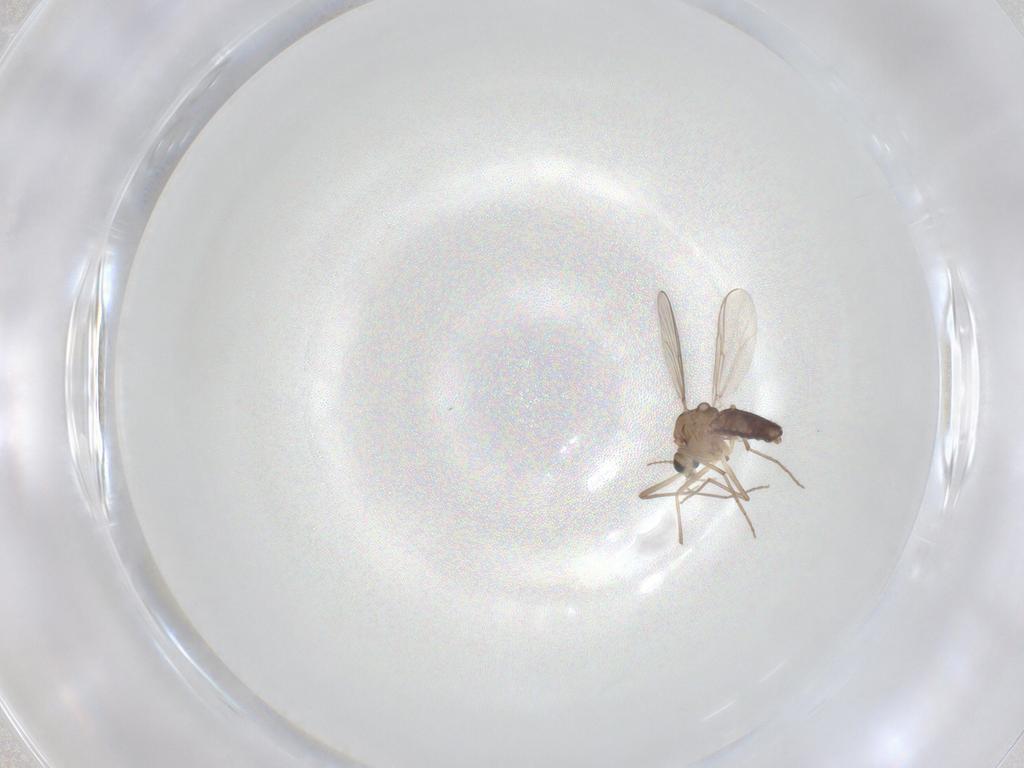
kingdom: Animalia
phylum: Arthropoda
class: Insecta
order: Diptera
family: Chironomidae
